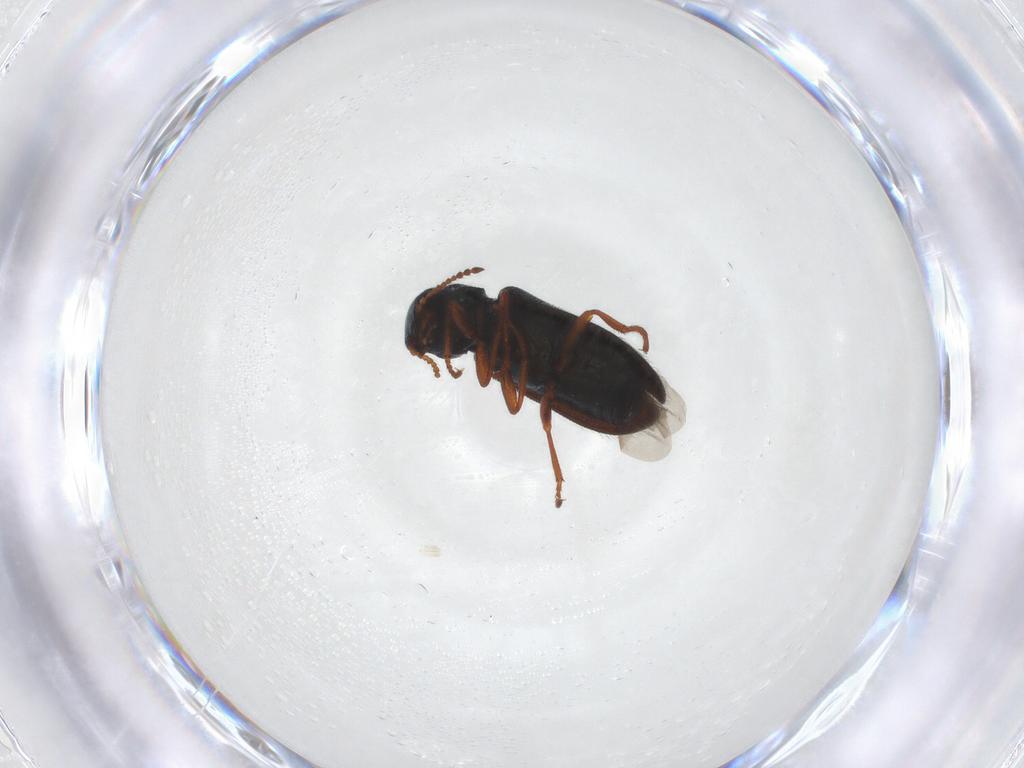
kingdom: Animalia
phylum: Arthropoda
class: Insecta
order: Coleoptera
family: Melyridae
